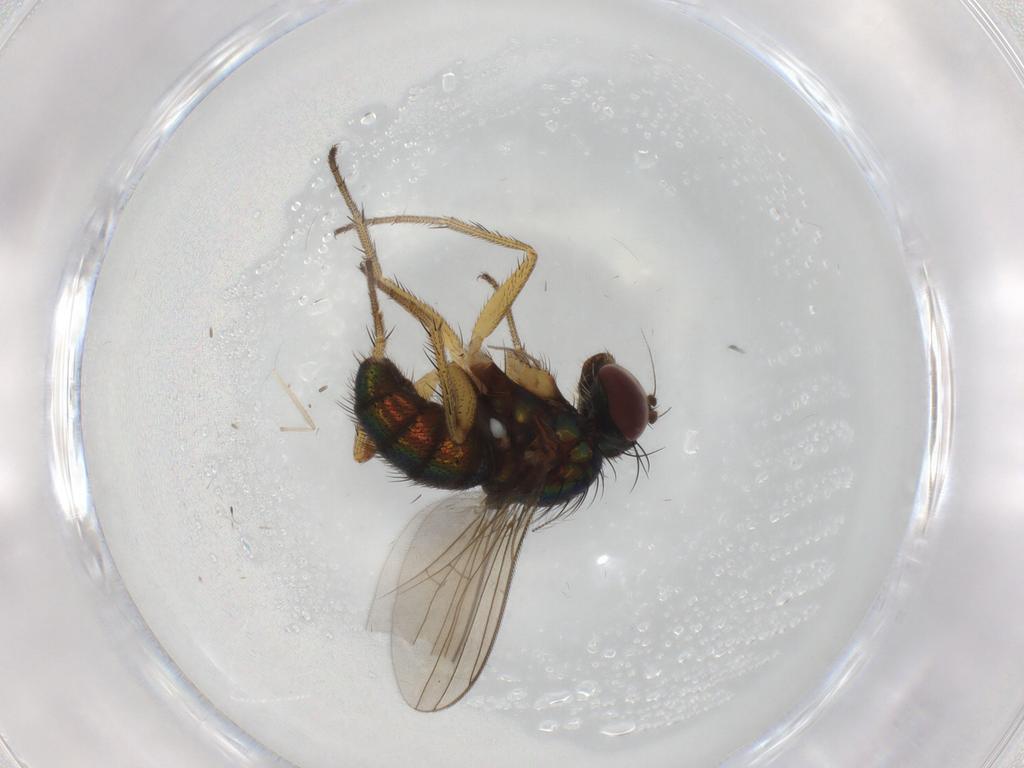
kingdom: Animalia
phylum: Arthropoda
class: Insecta
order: Diptera
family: Dolichopodidae
